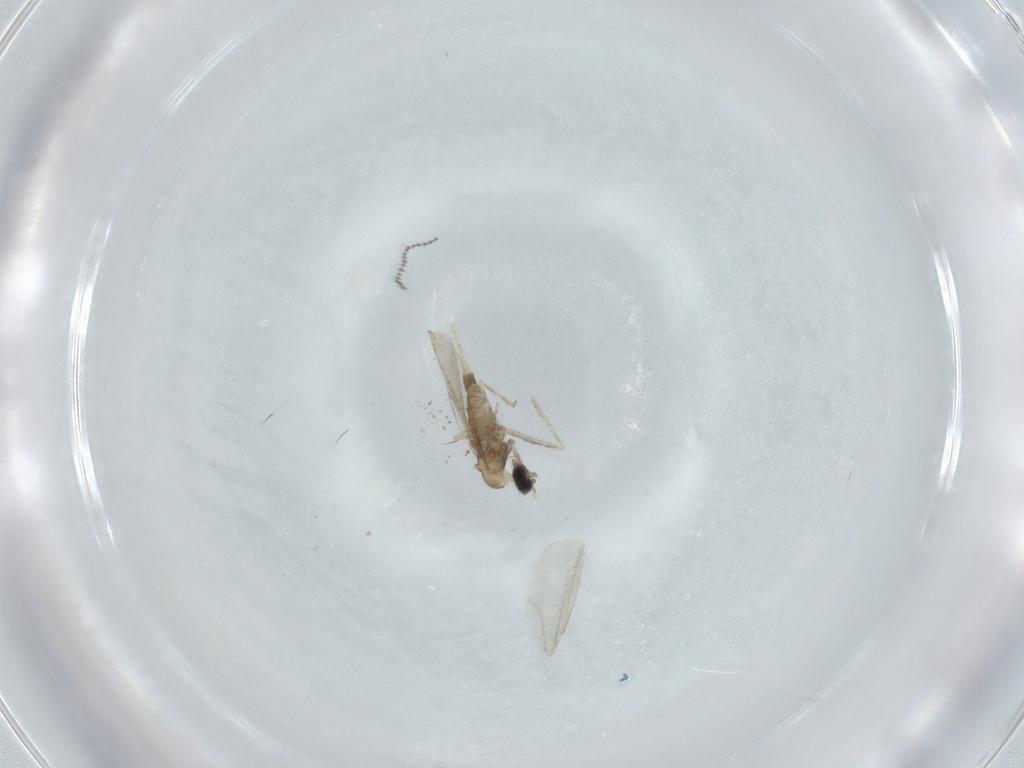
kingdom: Animalia
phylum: Arthropoda
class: Insecta
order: Diptera
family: Cecidomyiidae
